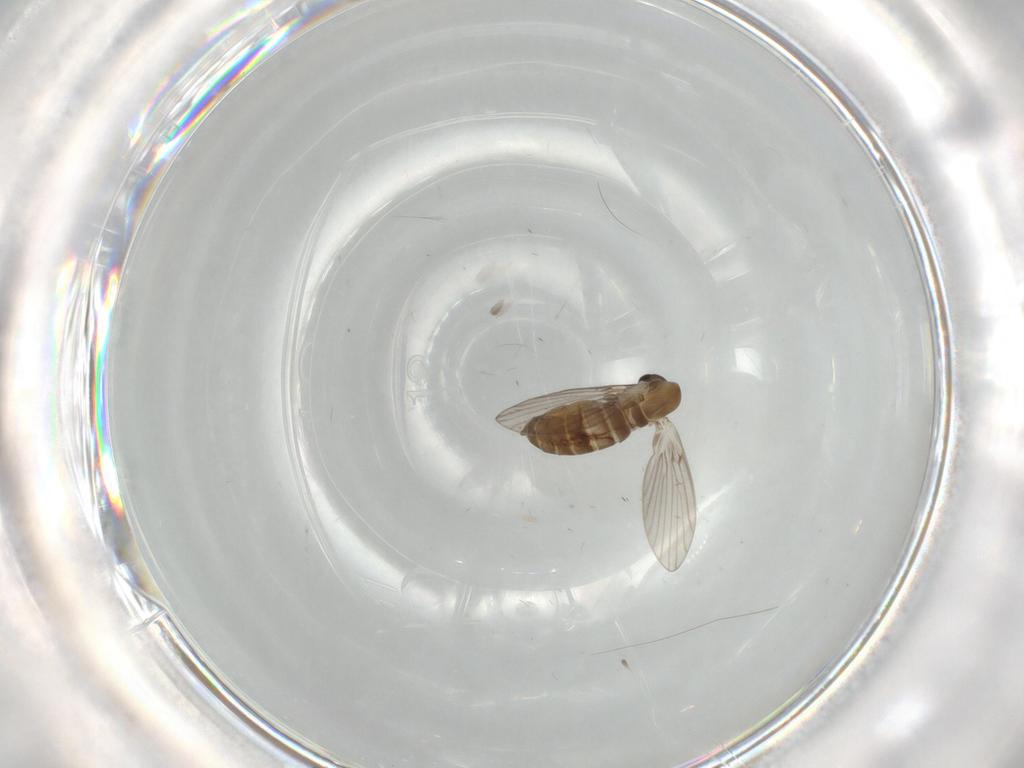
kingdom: Animalia
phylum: Arthropoda
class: Insecta
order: Diptera
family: Psychodidae
